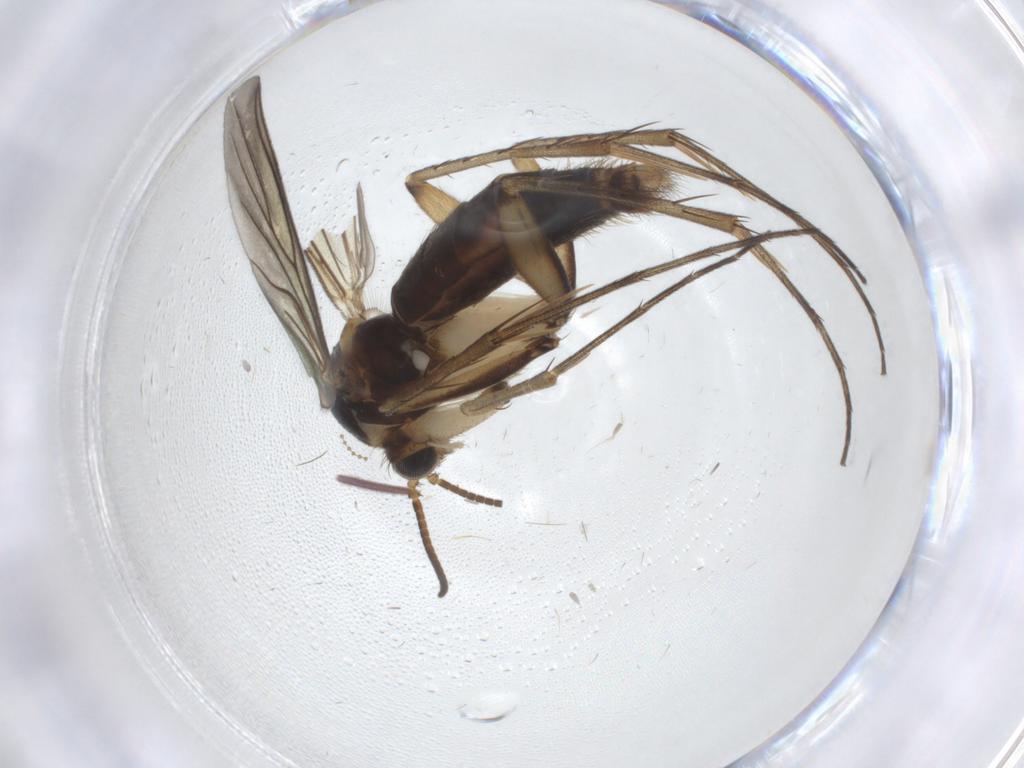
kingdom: Animalia
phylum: Arthropoda
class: Insecta
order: Diptera
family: Mycetophilidae
